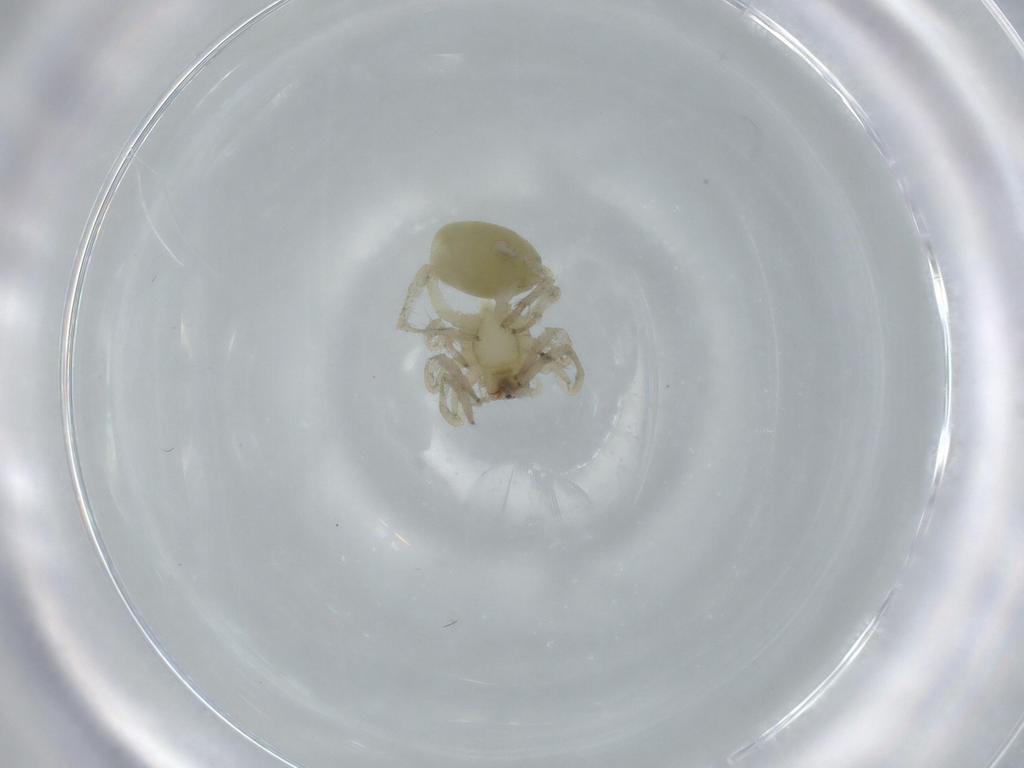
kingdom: Animalia
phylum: Arthropoda
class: Arachnida
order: Araneae
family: Anyphaenidae
